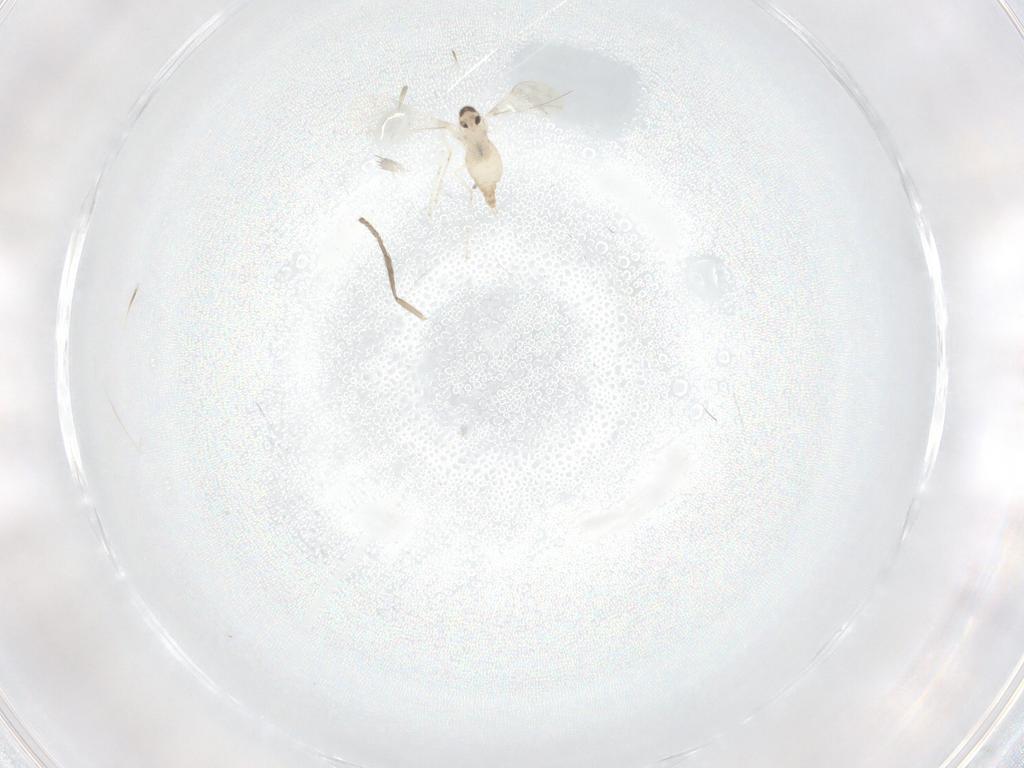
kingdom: Animalia
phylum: Arthropoda
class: Insecta
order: Diptera
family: Cecidomyiidae
